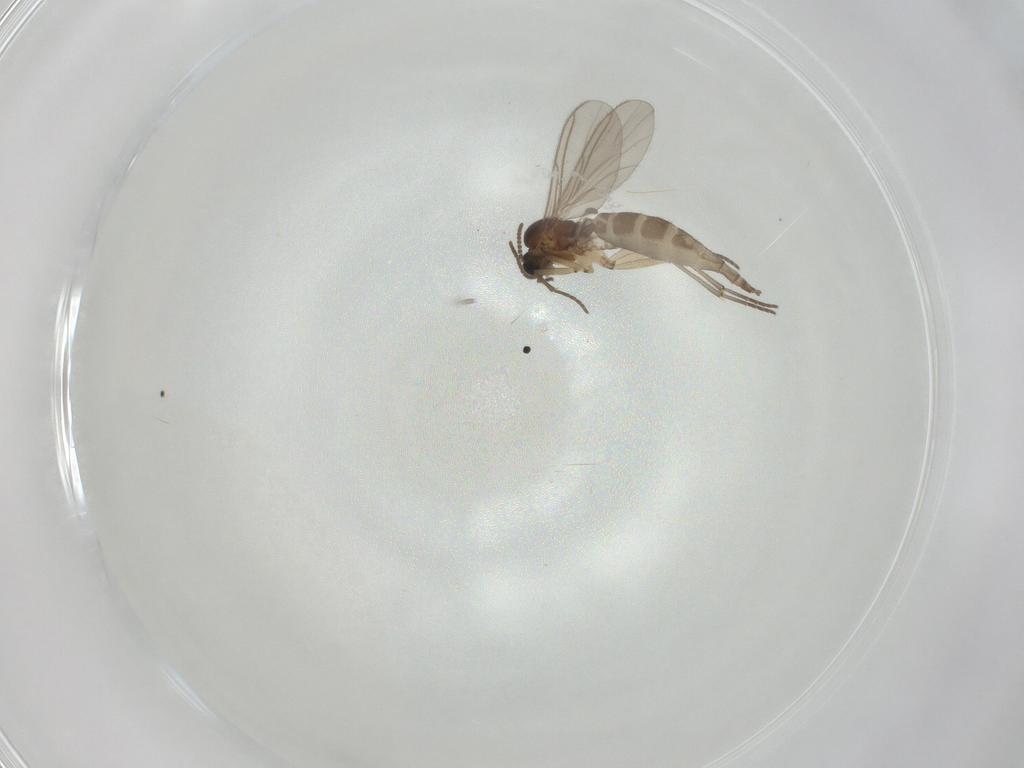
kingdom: Animalia
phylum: Arthropoda
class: Insecta
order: Diptera
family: Sciaridae
